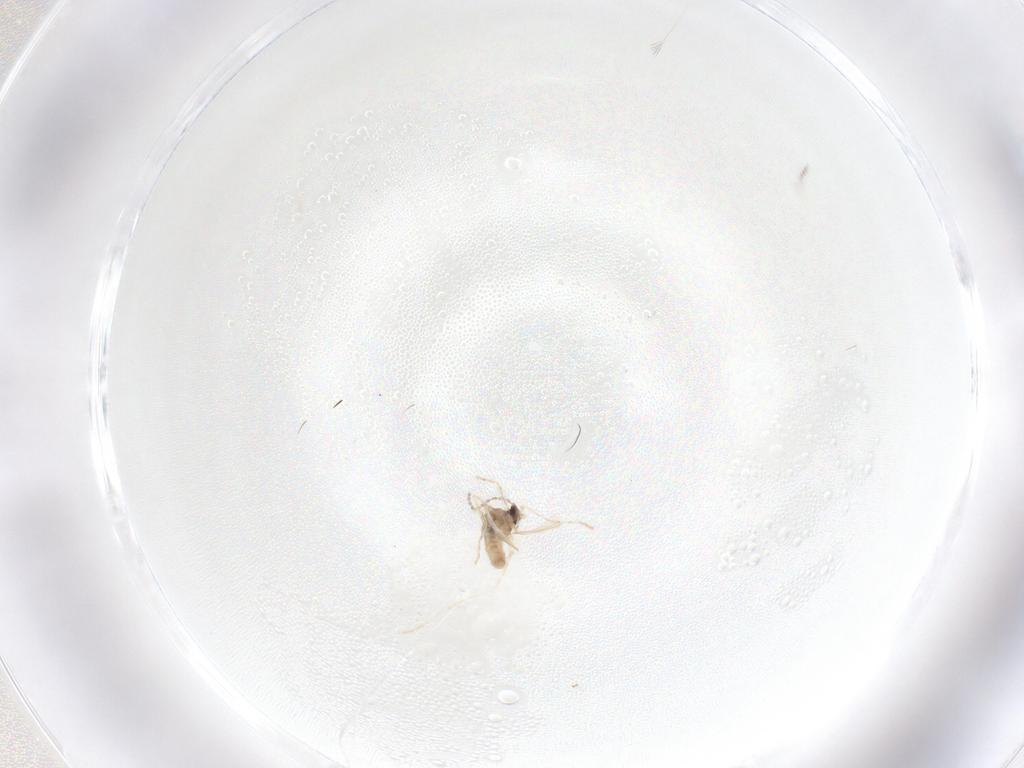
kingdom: Animalia
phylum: Arthropoda
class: Insecta
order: Diptera
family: Cecidomyiidae
